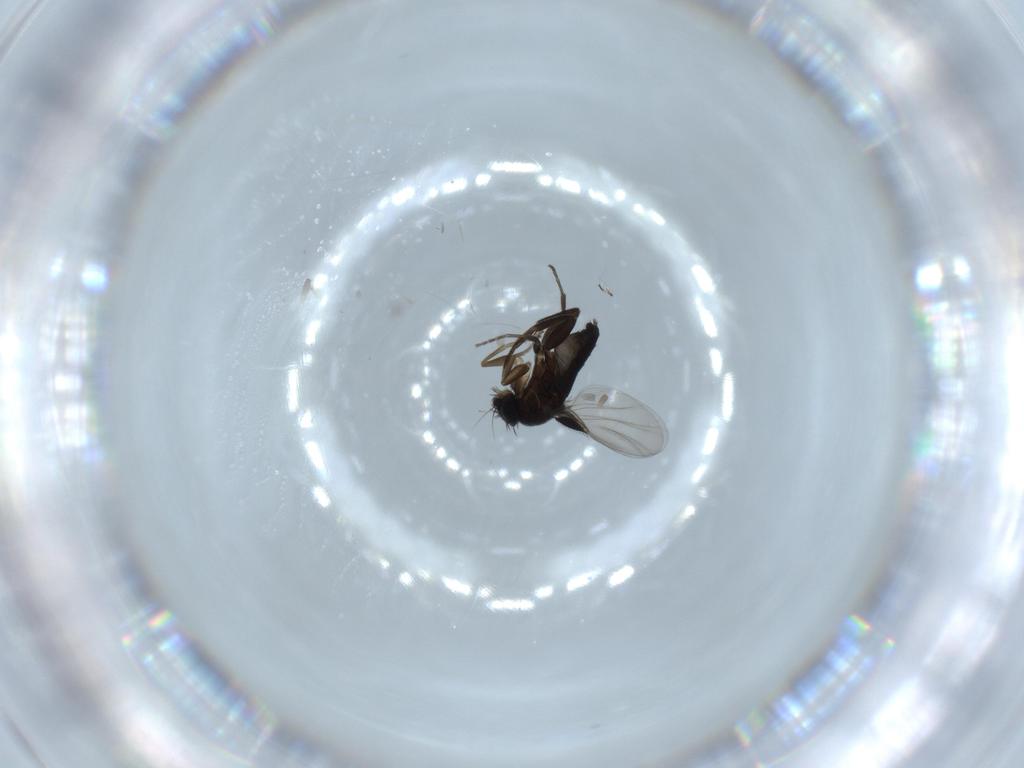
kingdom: Animalia
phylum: Arthropoda
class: Insecta
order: Diptera
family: Phoridae
